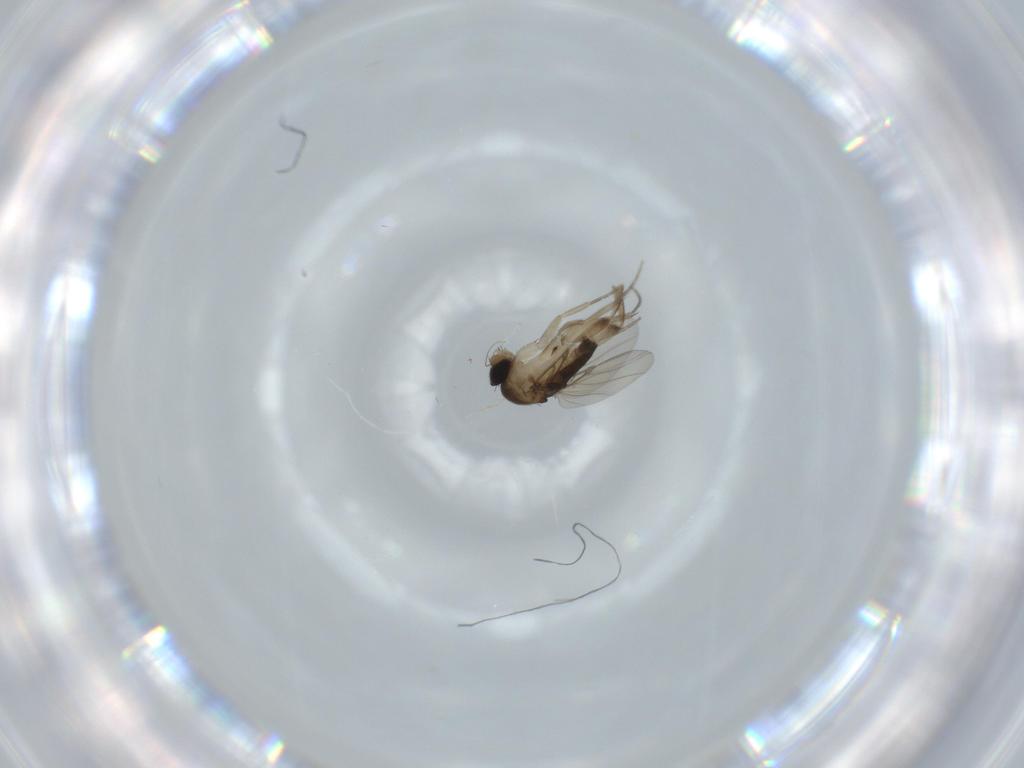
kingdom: Animalia
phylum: Arthropoda
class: Insecta
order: Diptera
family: Phoridae
